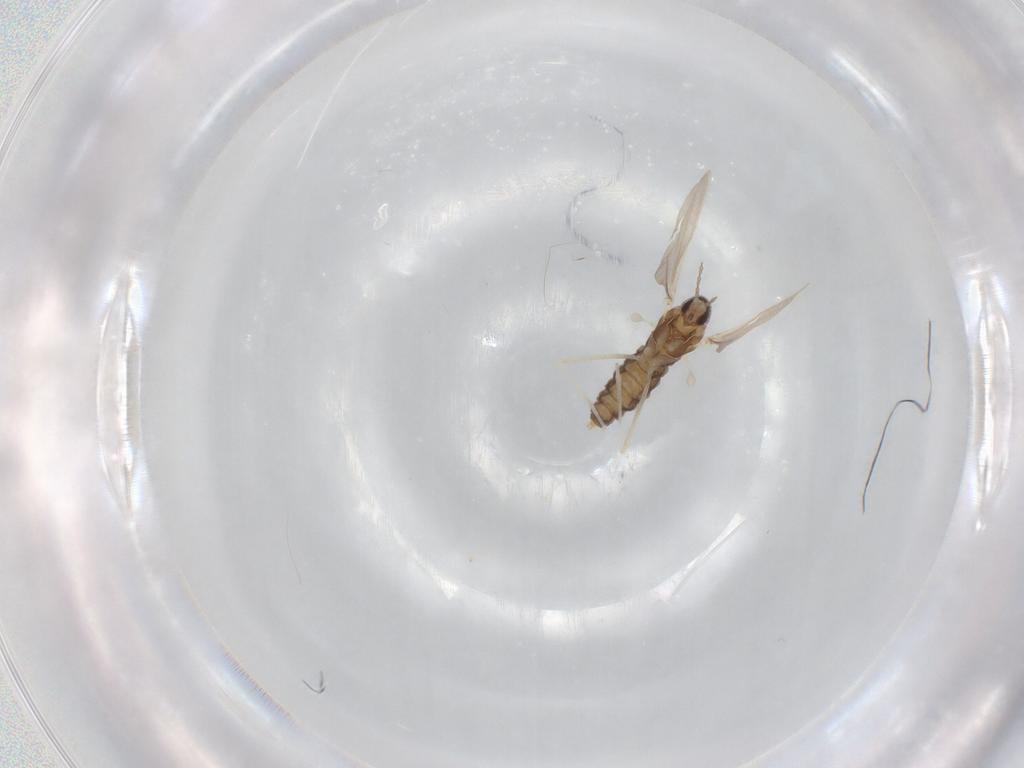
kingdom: Animalia
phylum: Arthropoda
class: Insecta
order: Diptera
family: Cecidomyiidae
